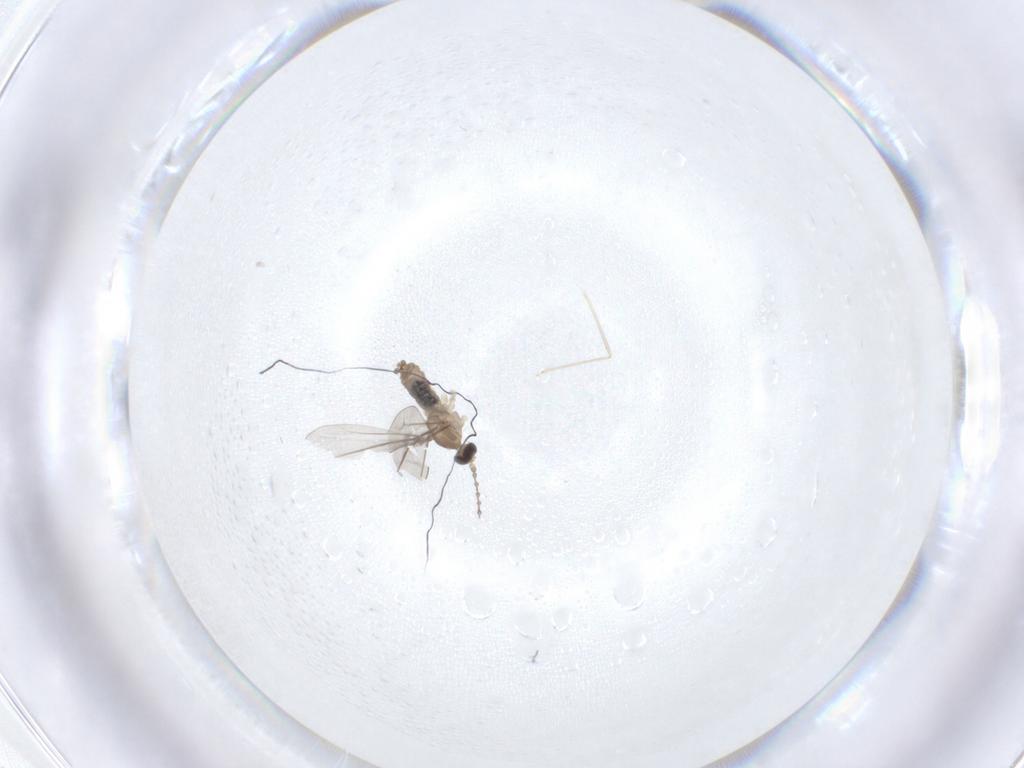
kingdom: Animalia
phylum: Arthropoda
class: Insecta
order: Diptera
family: Cecidomyiidae
